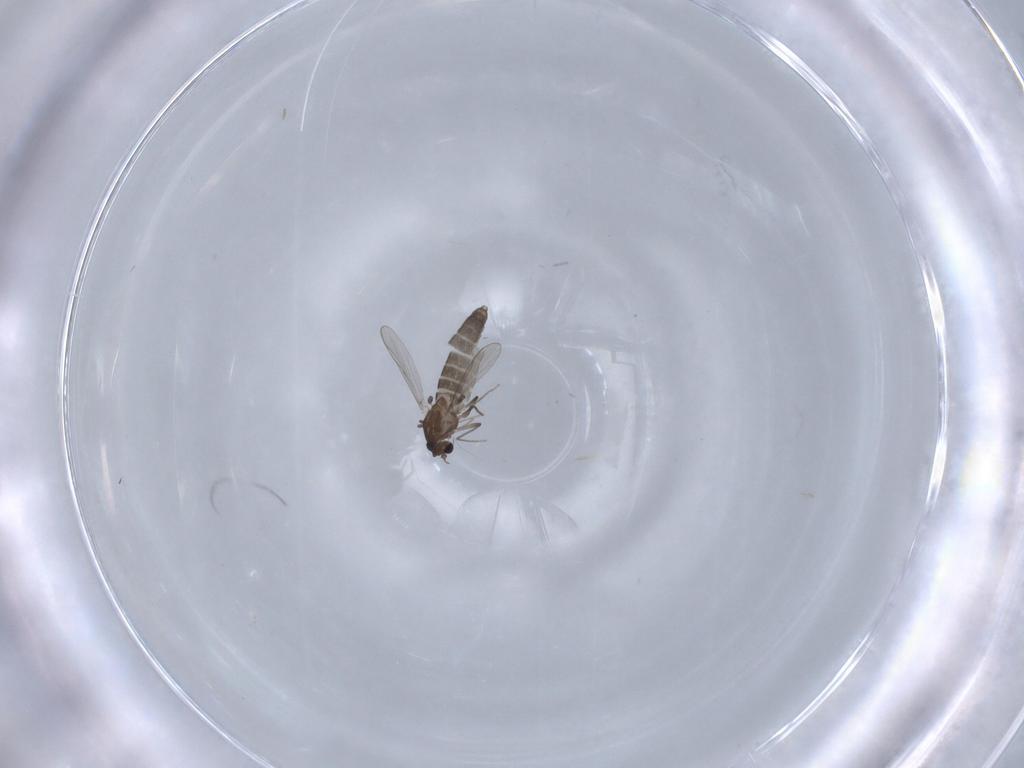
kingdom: Animalia
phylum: Arthropoda
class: Insecta
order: Diptera
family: Chironomidae
